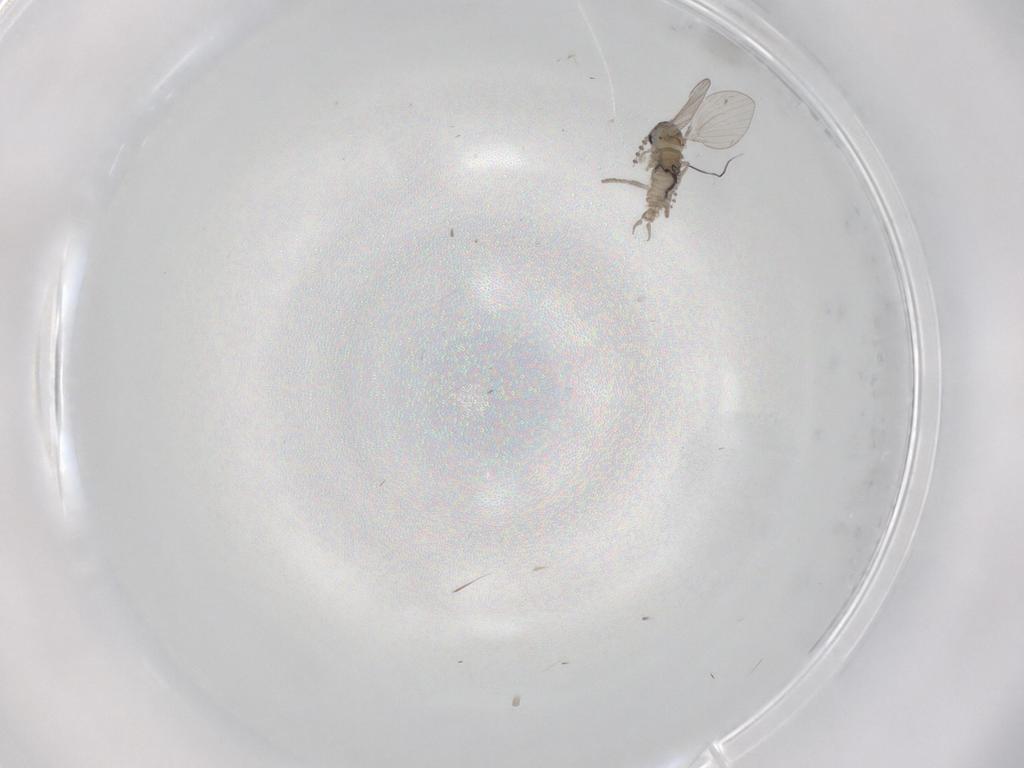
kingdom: Animalia
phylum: Arthropoda
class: Insecta
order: Diptera
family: Psychodidae
